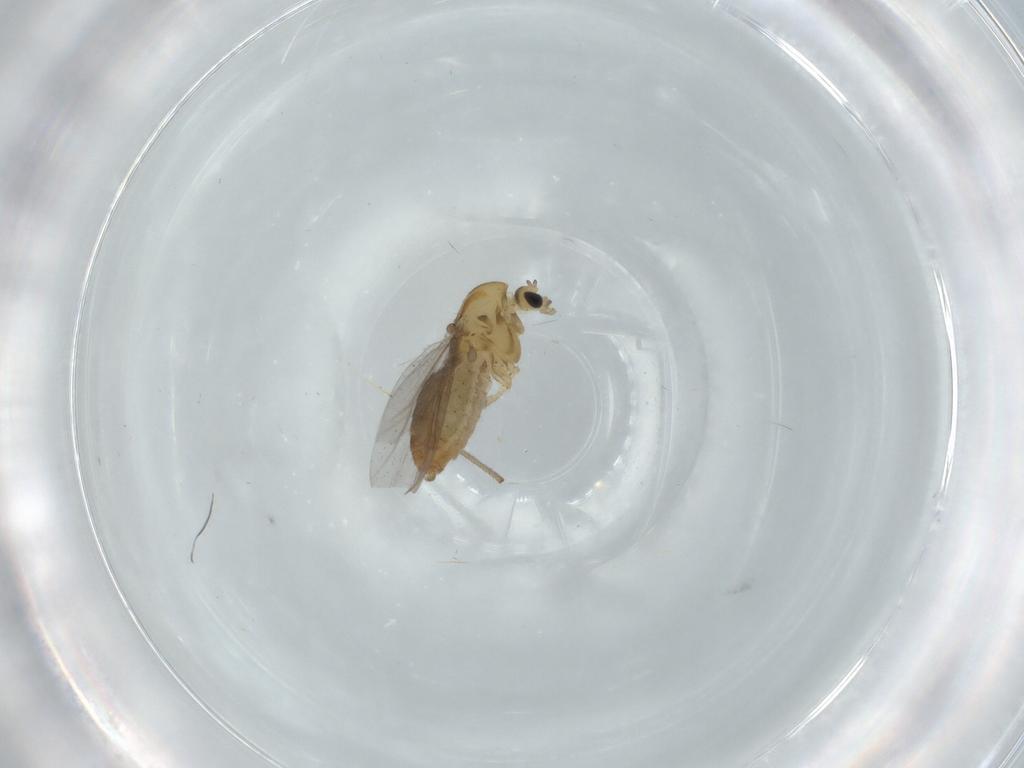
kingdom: Animalia
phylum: Arthropoda
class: Insecta
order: Diptera
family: Chironomidae
